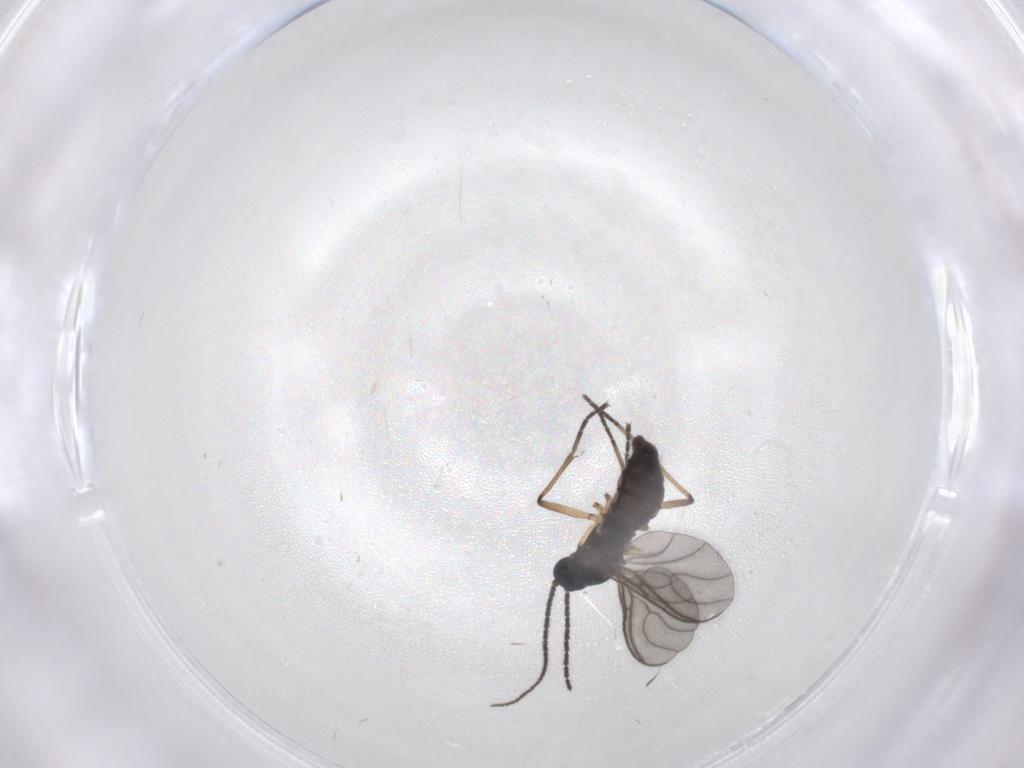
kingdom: Animalia
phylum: Arthropoda
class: Insecta
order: Diptera
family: Sciaridae
